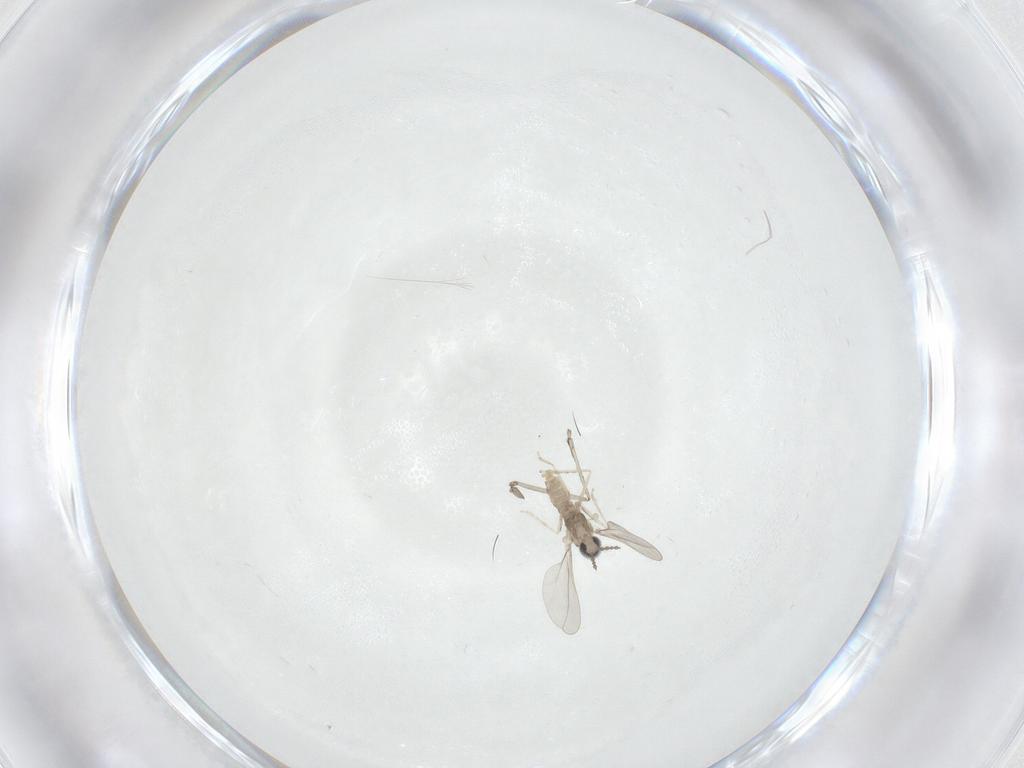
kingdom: Animalia
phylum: Arthropoda
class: Insecta
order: Diptera
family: Cecidomyiidae
